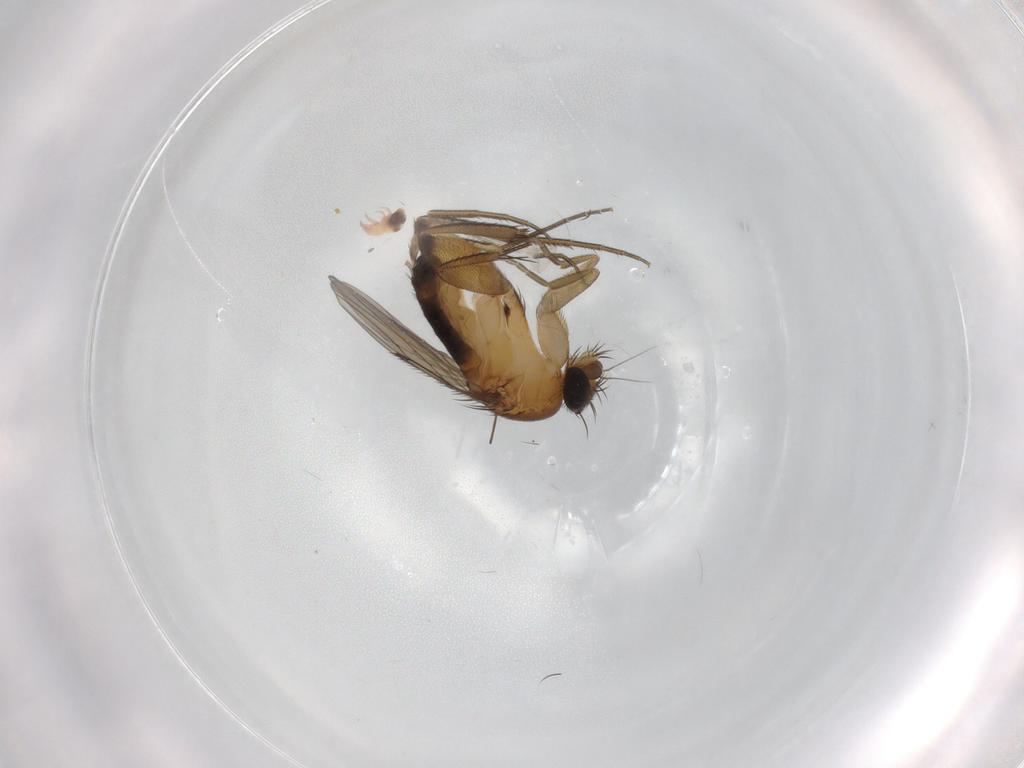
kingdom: Animalia
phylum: Arthropoda
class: Insecta
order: Diptera
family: Phoridae
